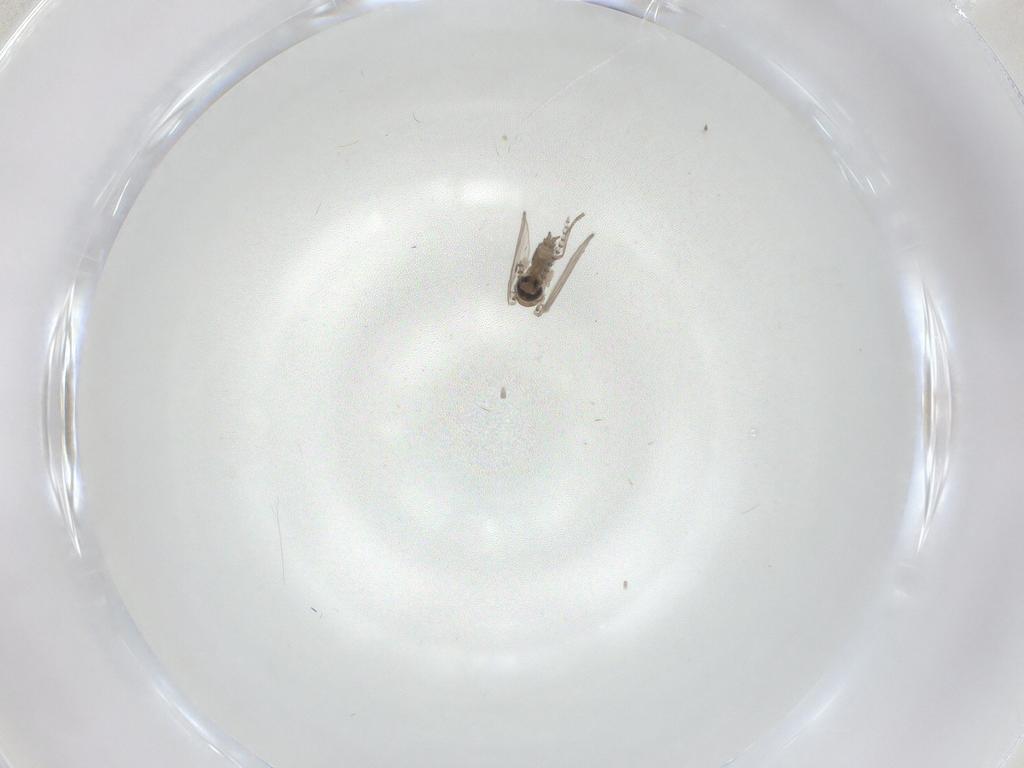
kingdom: Animalia
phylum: Arthropoda
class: Insecta
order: Diptera
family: Psychodidae
